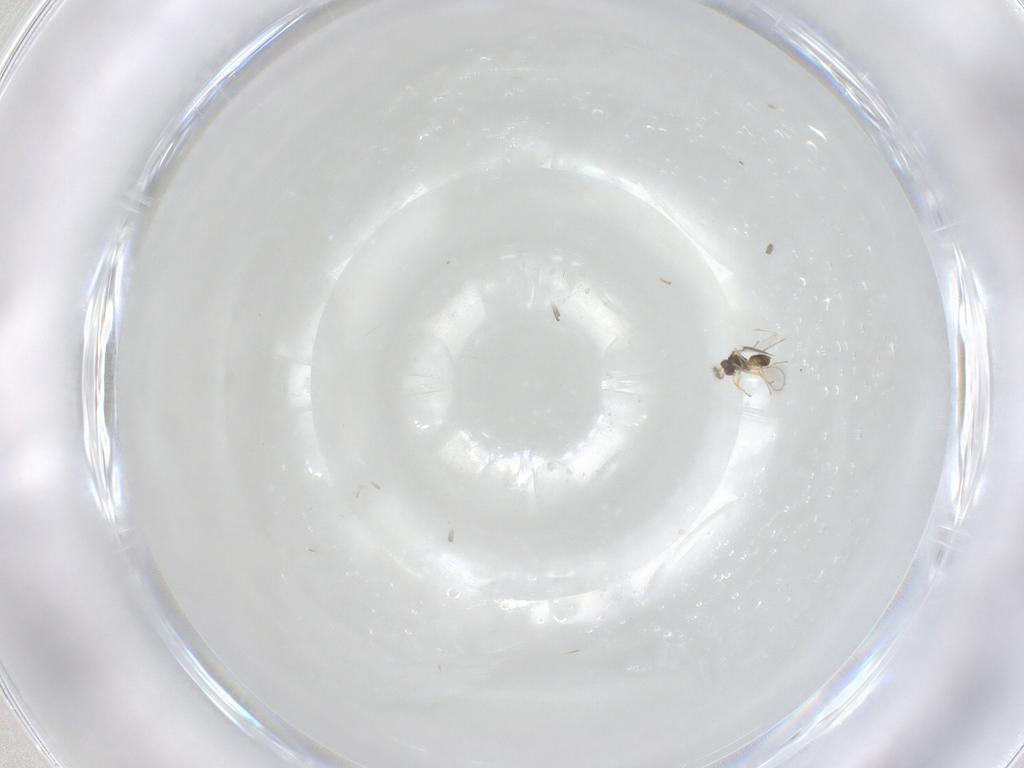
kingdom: Animalia
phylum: Arthropoda
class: Insecta
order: Hymenoptera
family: Eulophidae
